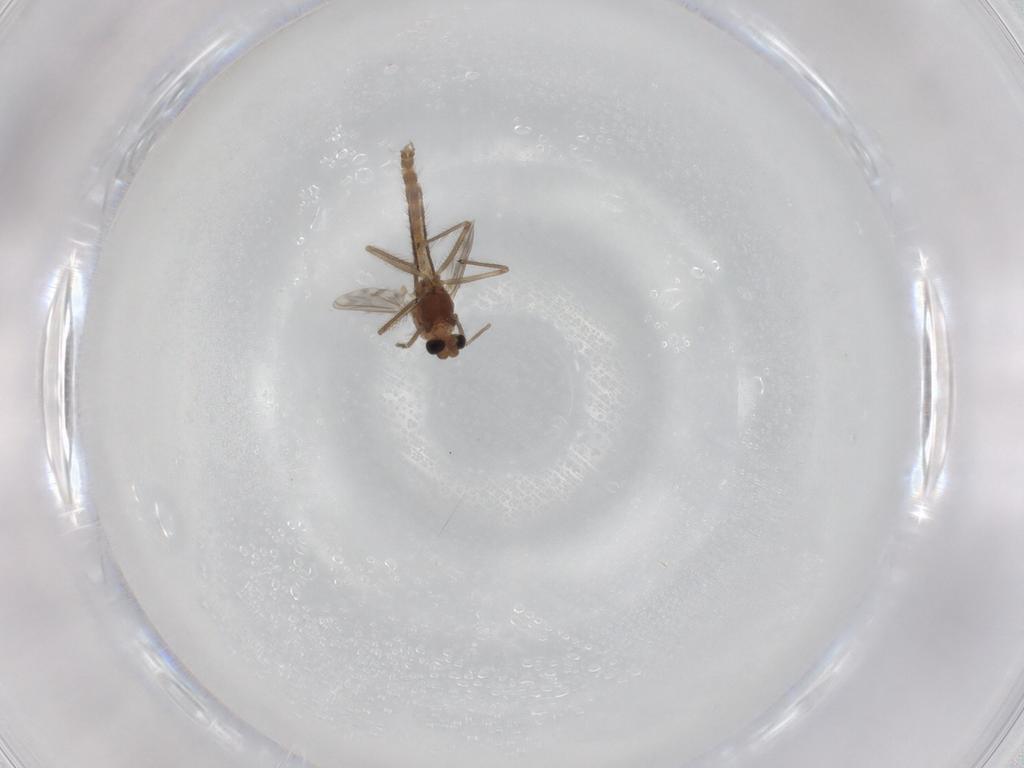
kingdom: Animalia
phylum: Arthropoda
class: Insecta
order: Diptera
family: Chironomidae
